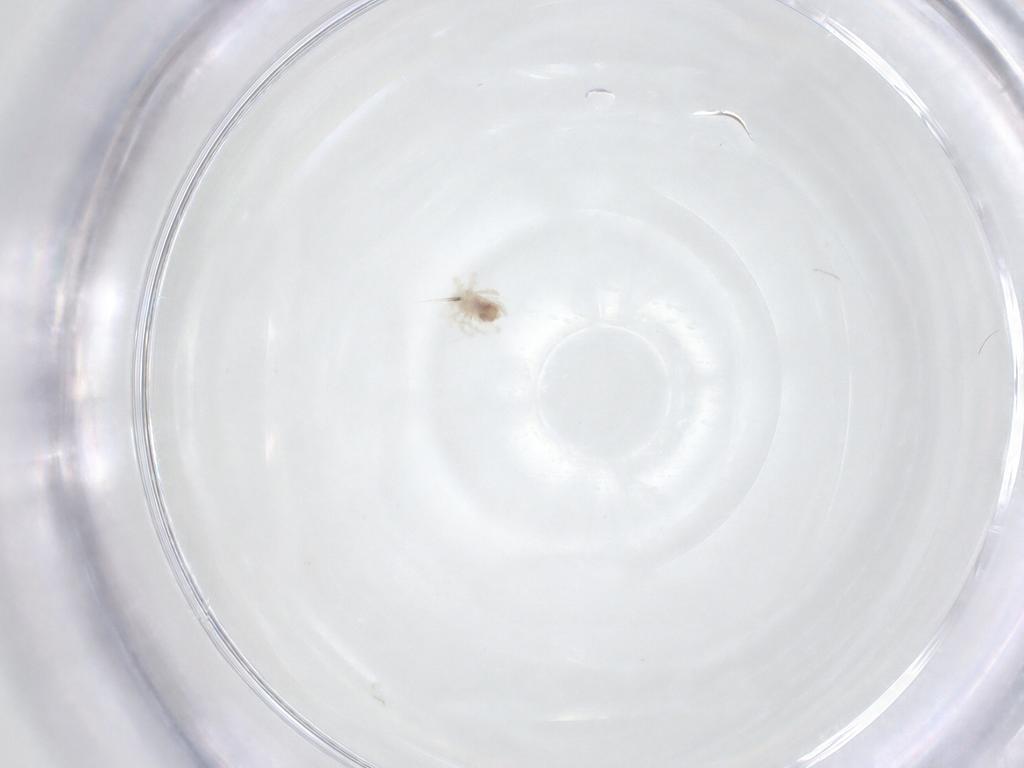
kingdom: Animalia
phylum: Arthropoda
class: Arachnida
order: Trombidiformes
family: Anystidae
